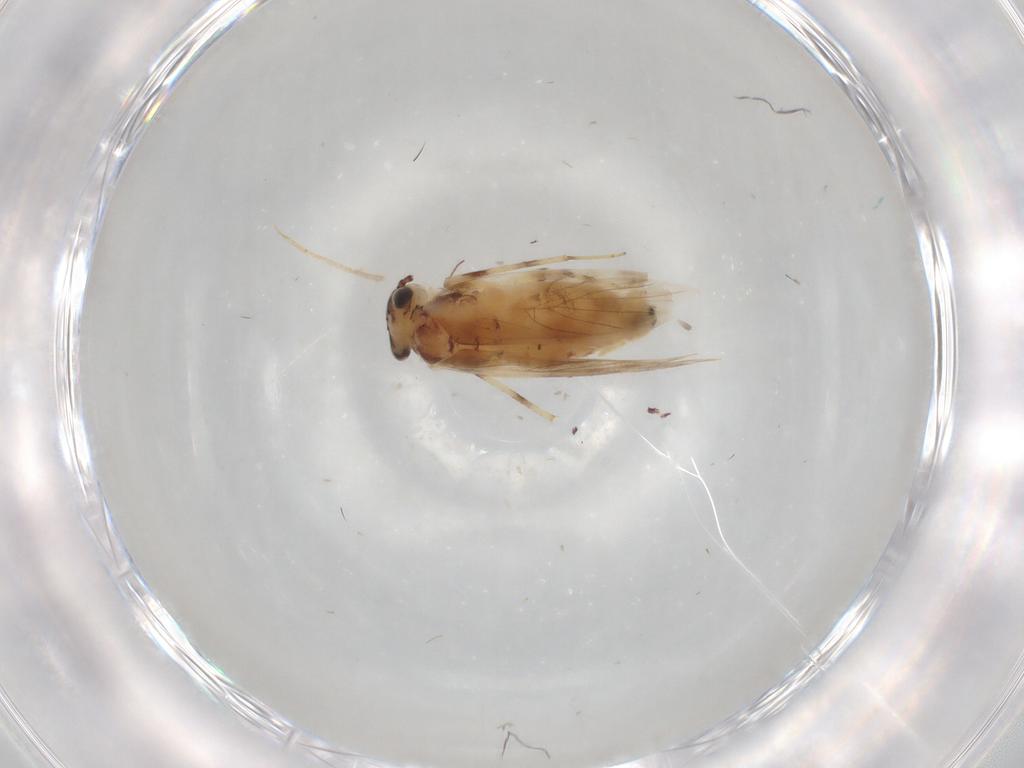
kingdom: Animalia
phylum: Arthropoda
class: Insecta
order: Psocodea
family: Lepidopsocidae
